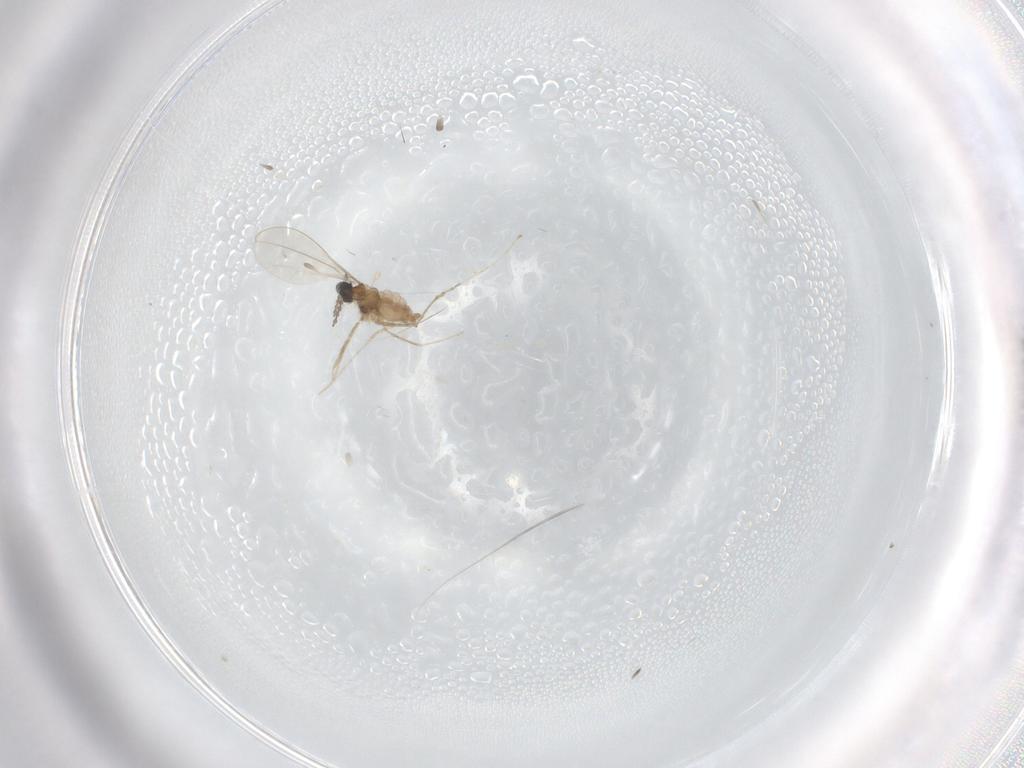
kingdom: Animalia
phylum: Arthropoda
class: Insecta
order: Diptera
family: Cecidomyiidae
